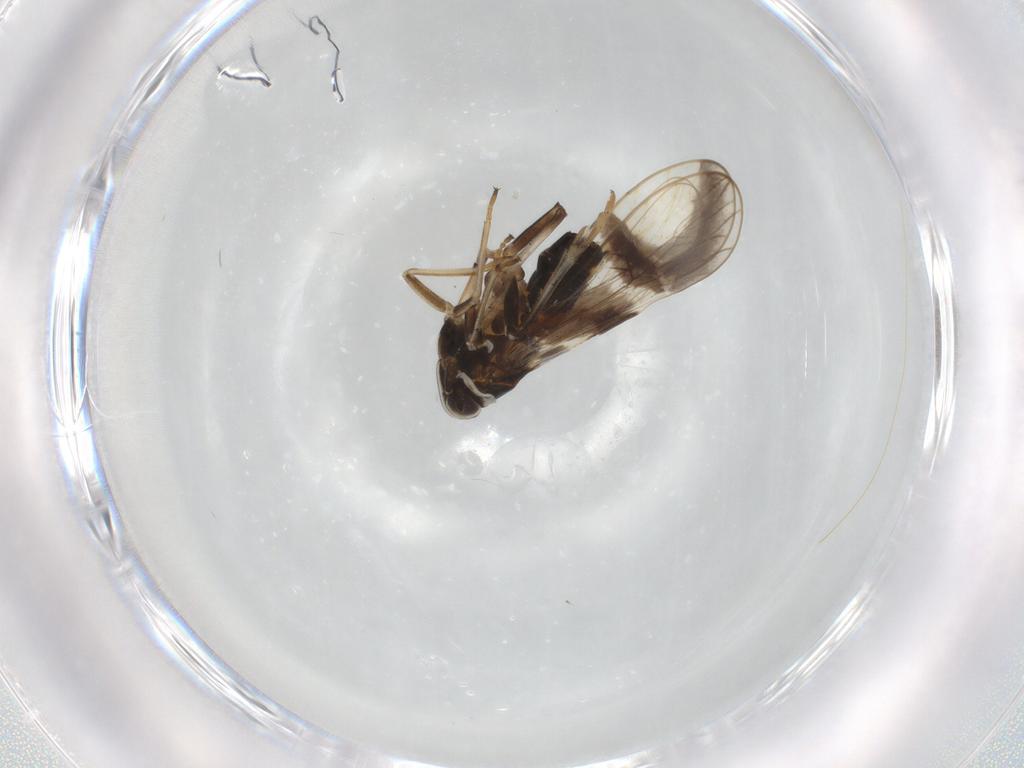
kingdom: Animalia
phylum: Arthropoda
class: Insecta
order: Hemiptera
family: Delphacidae
